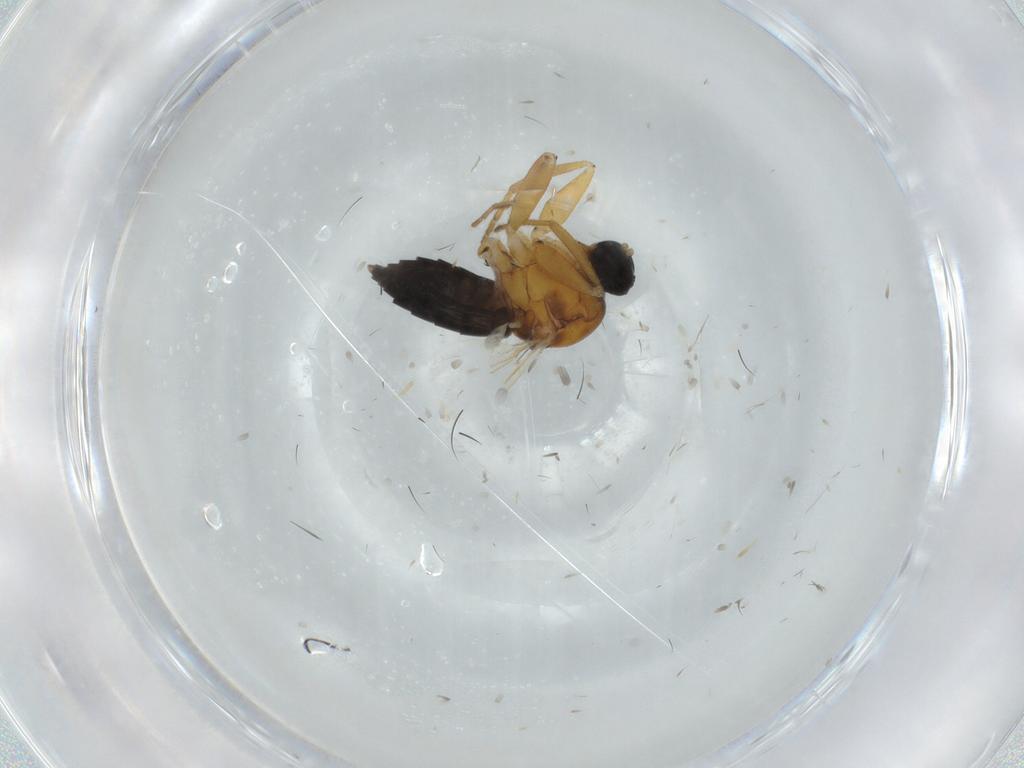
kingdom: Animalia
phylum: Arthropoda
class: Insecta
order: Diptera
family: Hybotidae
